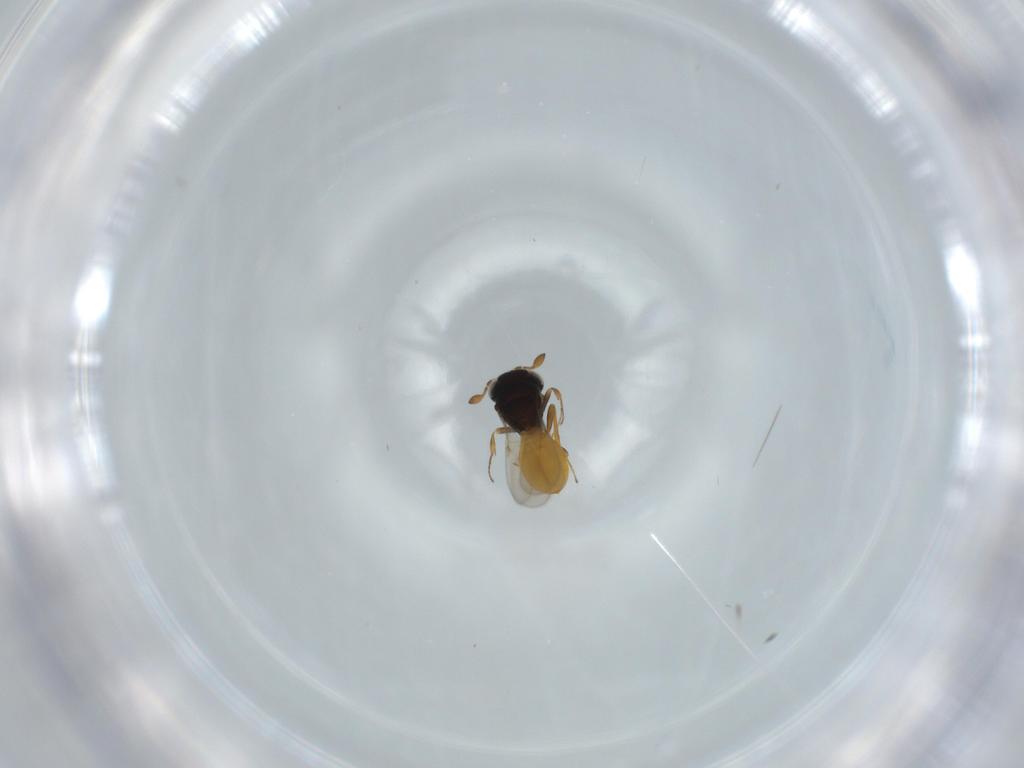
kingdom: Animalia
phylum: Arthropoda
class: Insecta
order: Hymenoptera
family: Scelionidae
